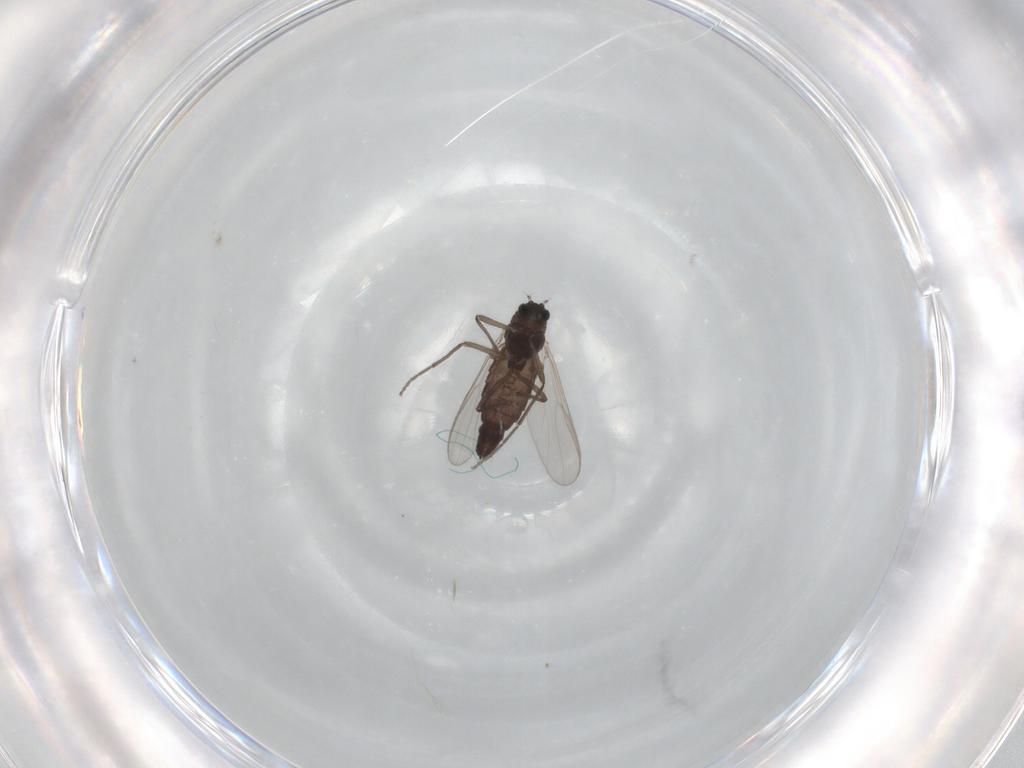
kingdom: Animalia
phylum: Arthropoda
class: Insecta
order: Diptera
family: Chironomidae
